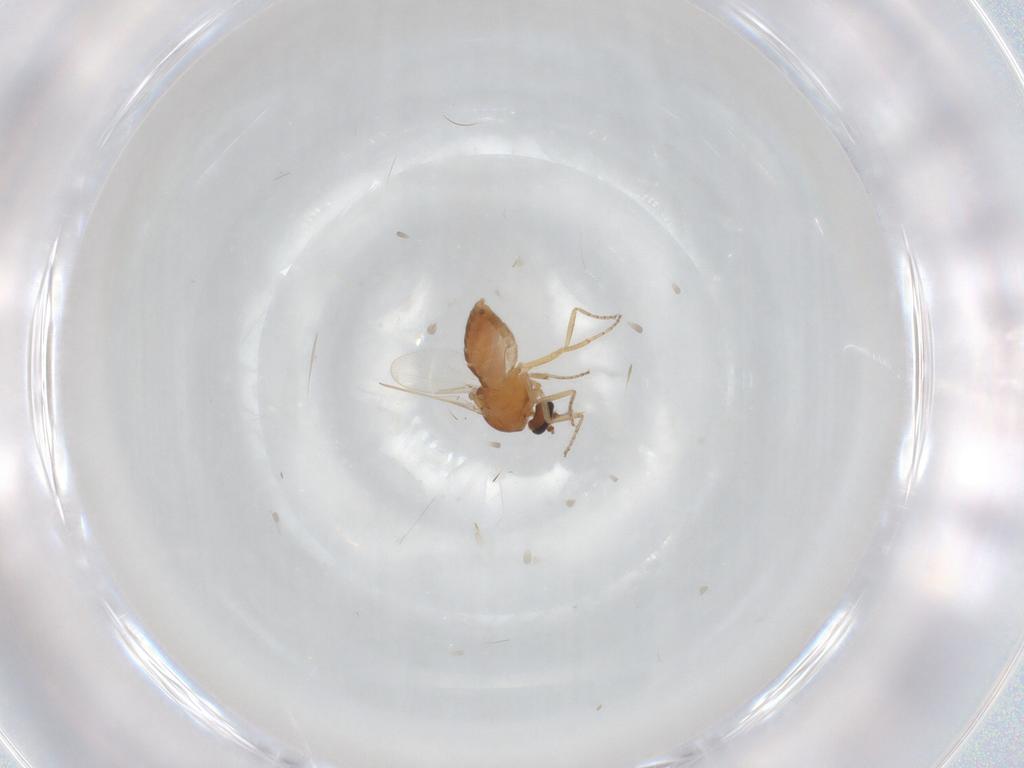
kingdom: Animalia
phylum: Arthropoda
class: Insecta
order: Diptera
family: Ceratopogonidae
